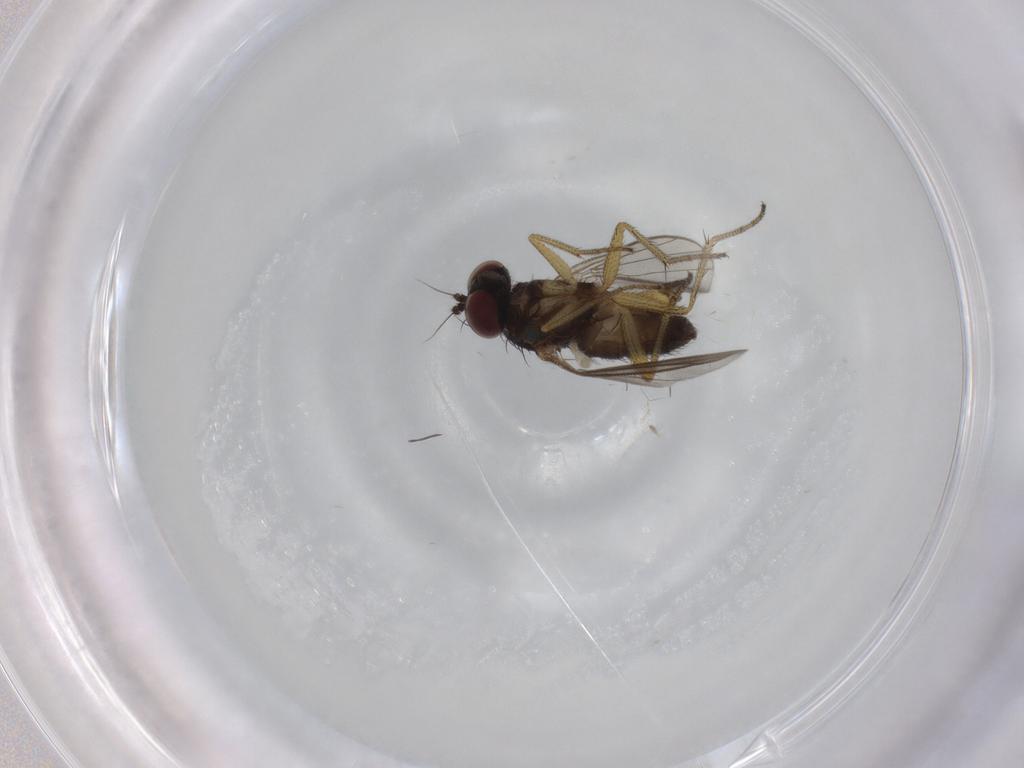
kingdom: Animalia
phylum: Arthropoda
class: Insecta
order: Diptera
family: Dolichopodidae
